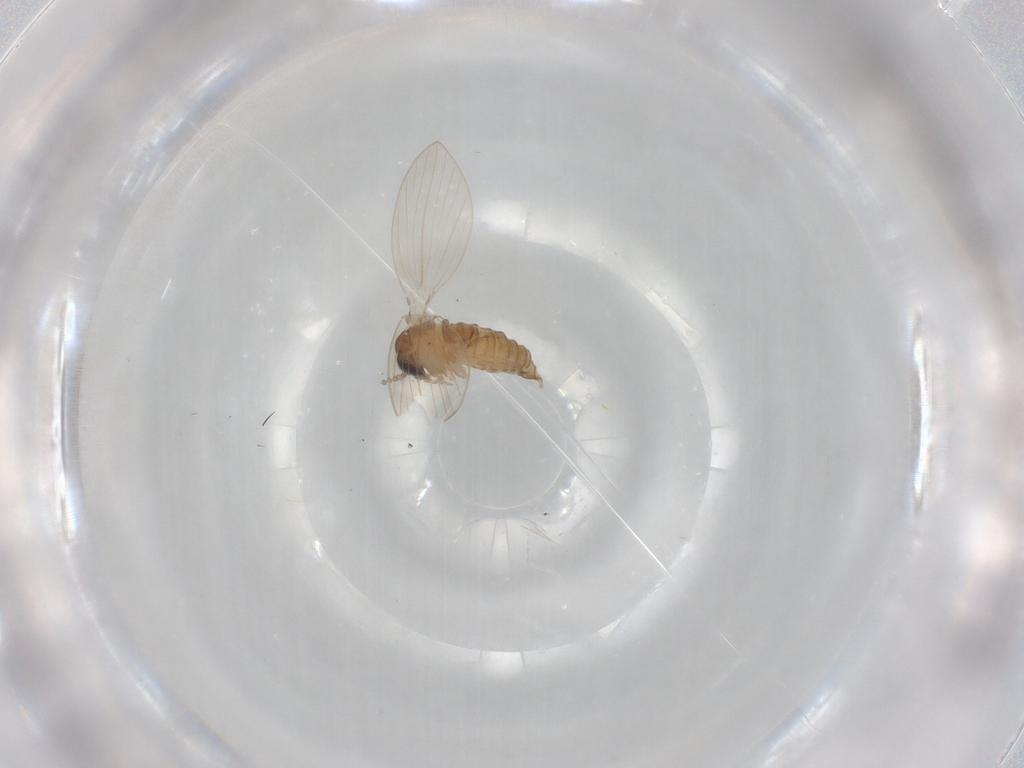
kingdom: Animalia
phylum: Arthropoda
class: Insecta
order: Diptera
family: Psychodidae
